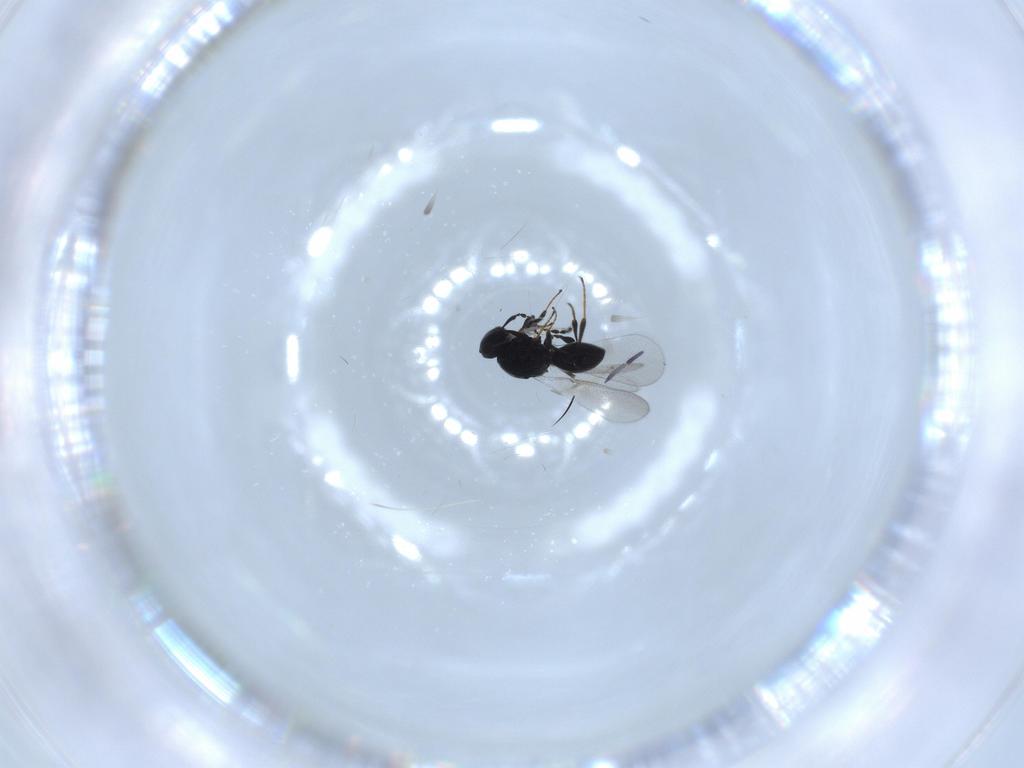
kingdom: Animalia
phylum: Arthropoda
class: Insecta
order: Hymenoptera
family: Platygastridae
